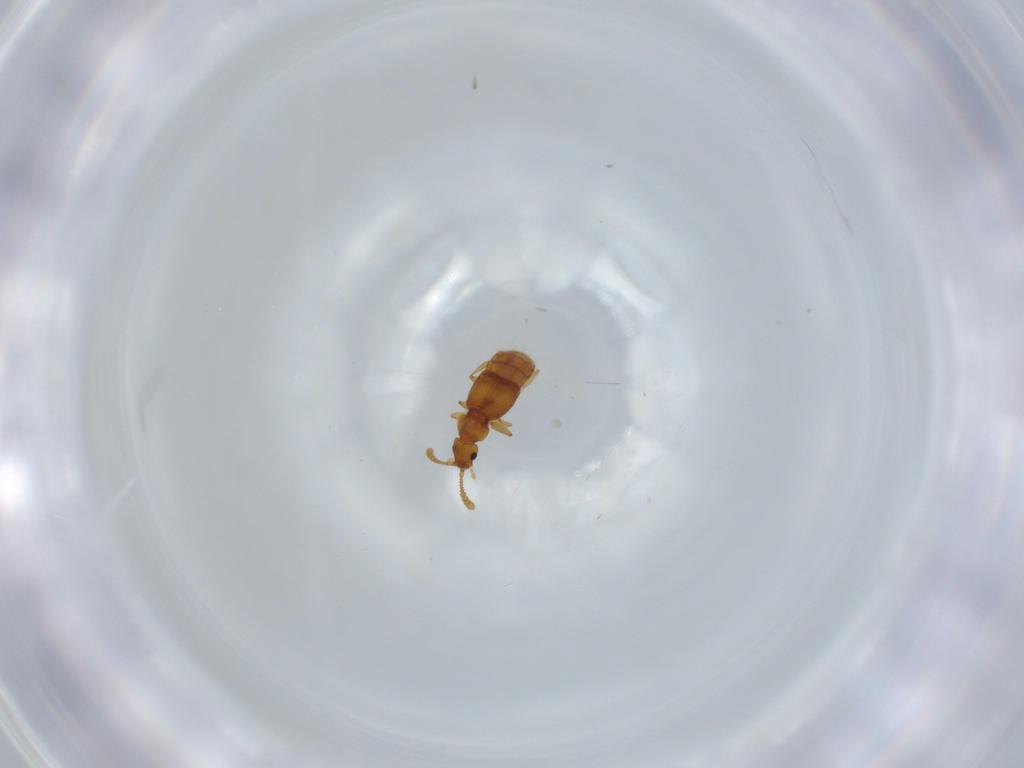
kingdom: Animalia
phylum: Arthropoda
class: Insecta
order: Coleoptera
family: Staphylinidae
